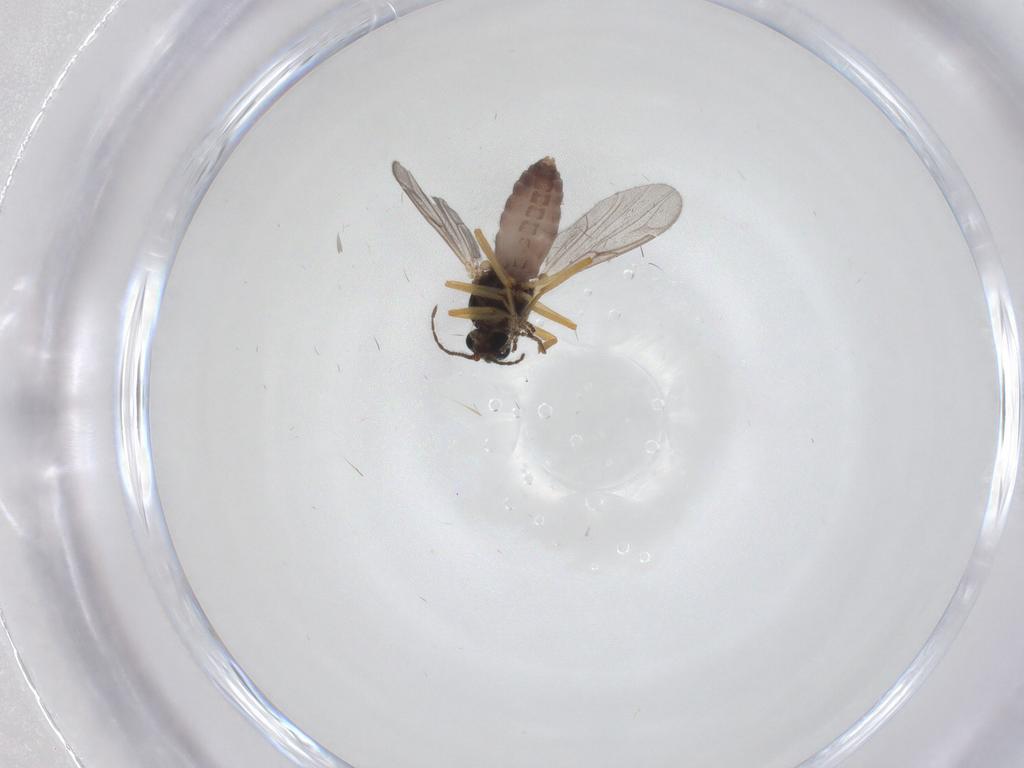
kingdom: Animalia
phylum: Arthropoda
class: Insecta
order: Diptera
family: Ceratopogonidae
